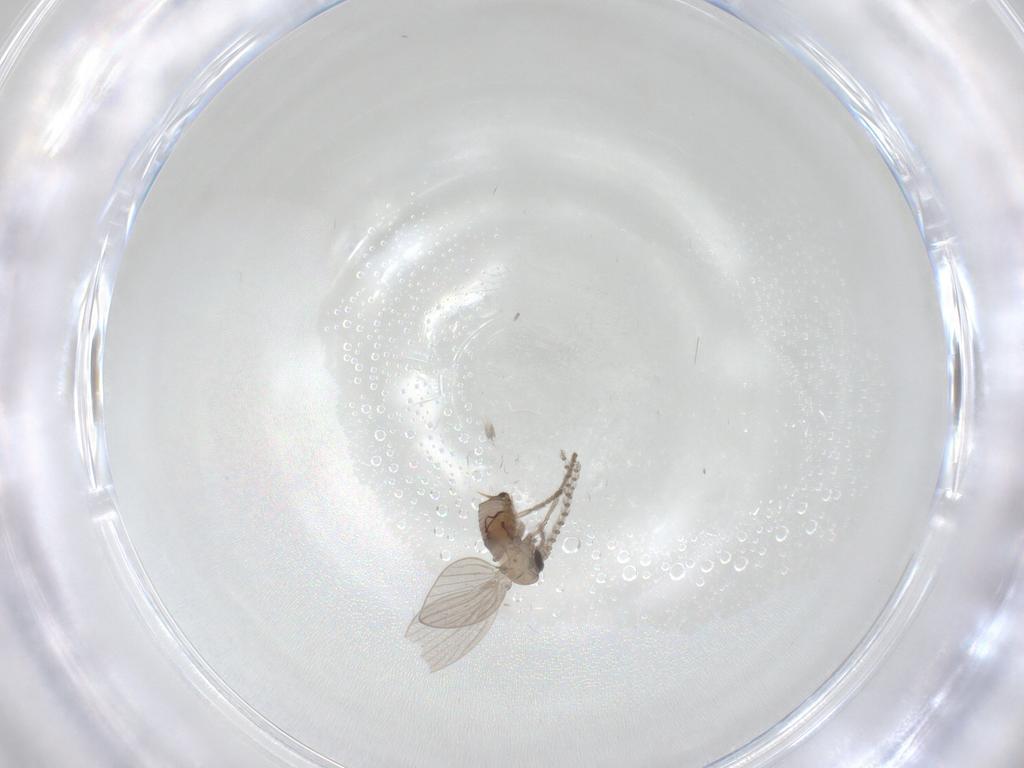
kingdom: Animalia
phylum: Arthropoda
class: Insecta
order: Diptera
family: Psychodidae
